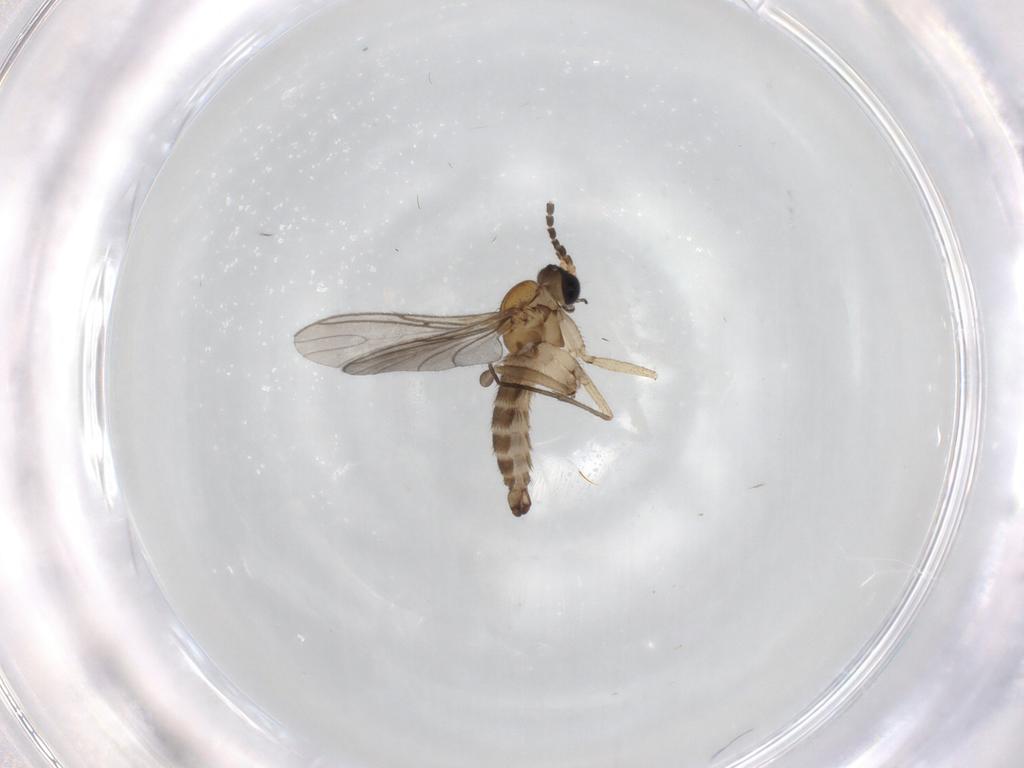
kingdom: Animalia
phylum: Arthropoda
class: Insecta
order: Diptera
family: Sciaridae
